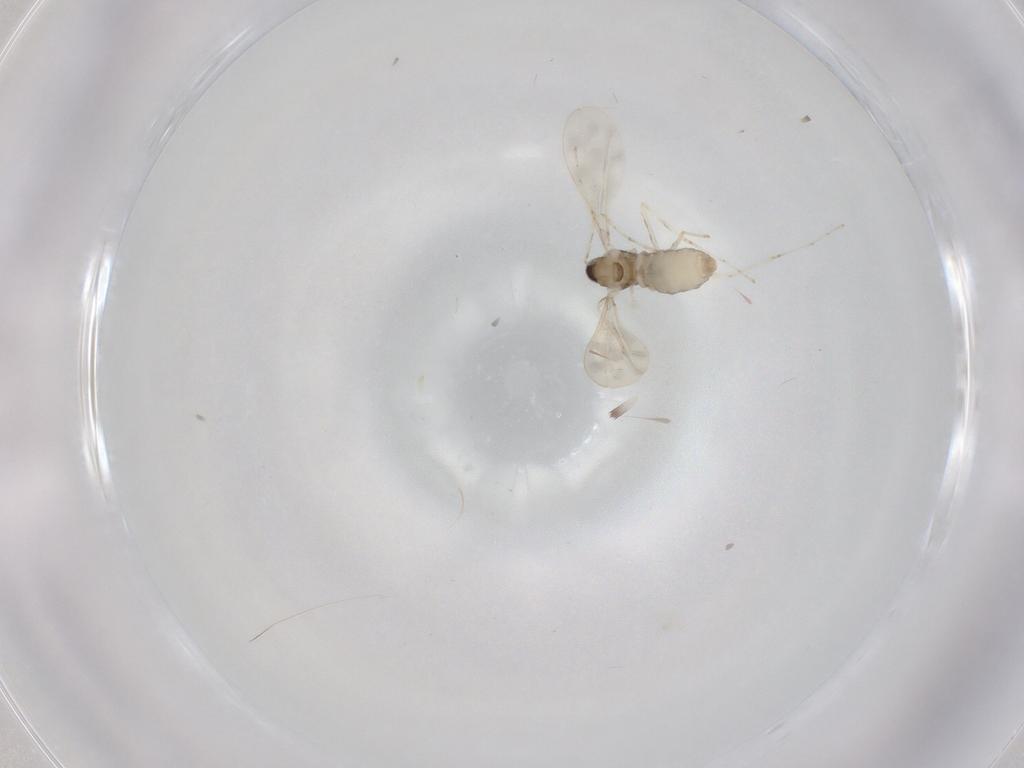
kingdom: Animalia
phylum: Arthropoda
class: Insecta
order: Diptera
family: Cecidomyiidae
